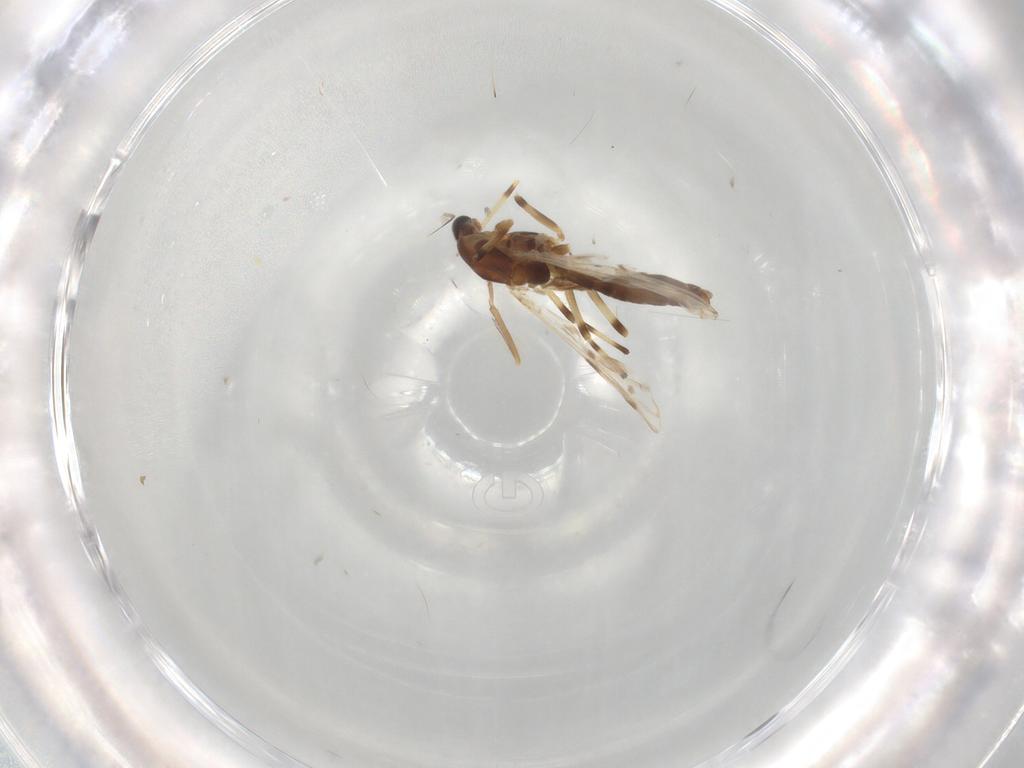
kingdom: Animalia
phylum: Arthropoda
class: Insecta
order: Diptera
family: Chironomidae
